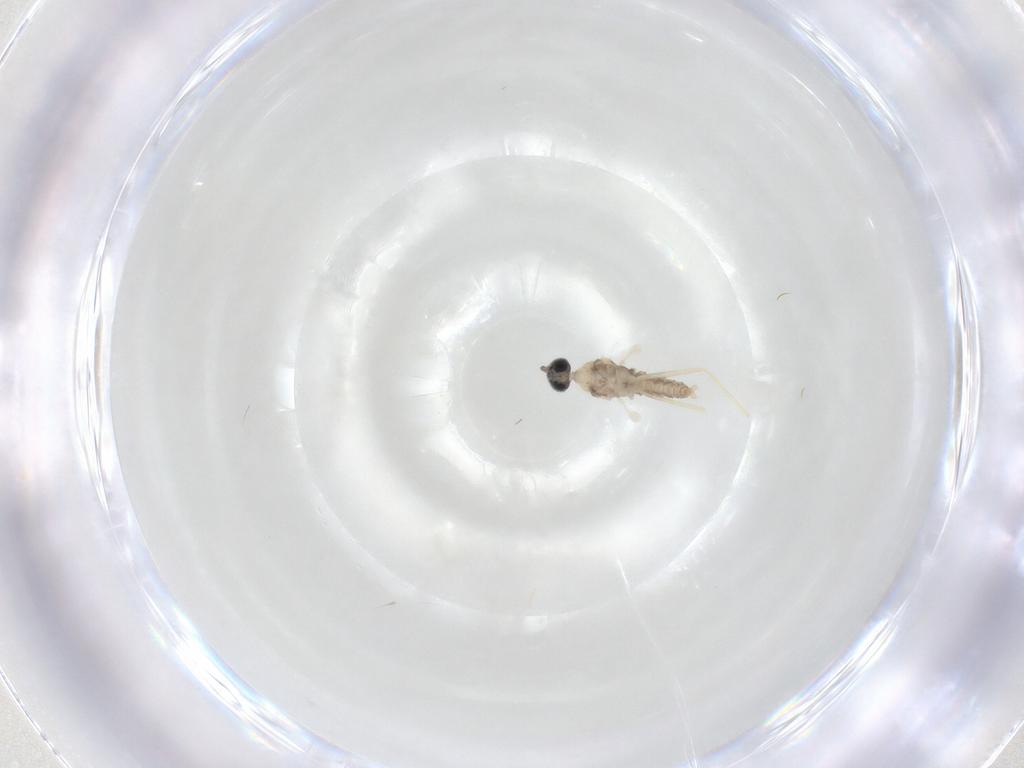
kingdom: Animalia
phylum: Arthropoda
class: Insecta
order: Diptera
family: Cecidomyiidae
